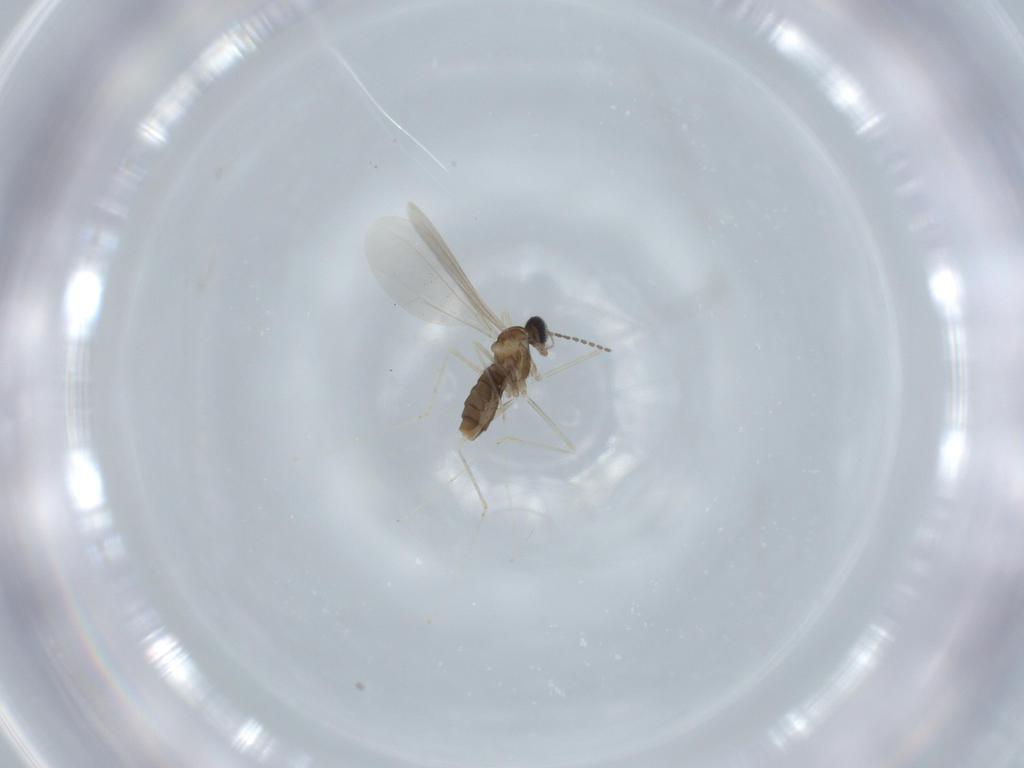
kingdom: Animalia
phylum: Arthropoda
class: Insecta
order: Diptera
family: Cecidomyiidae
